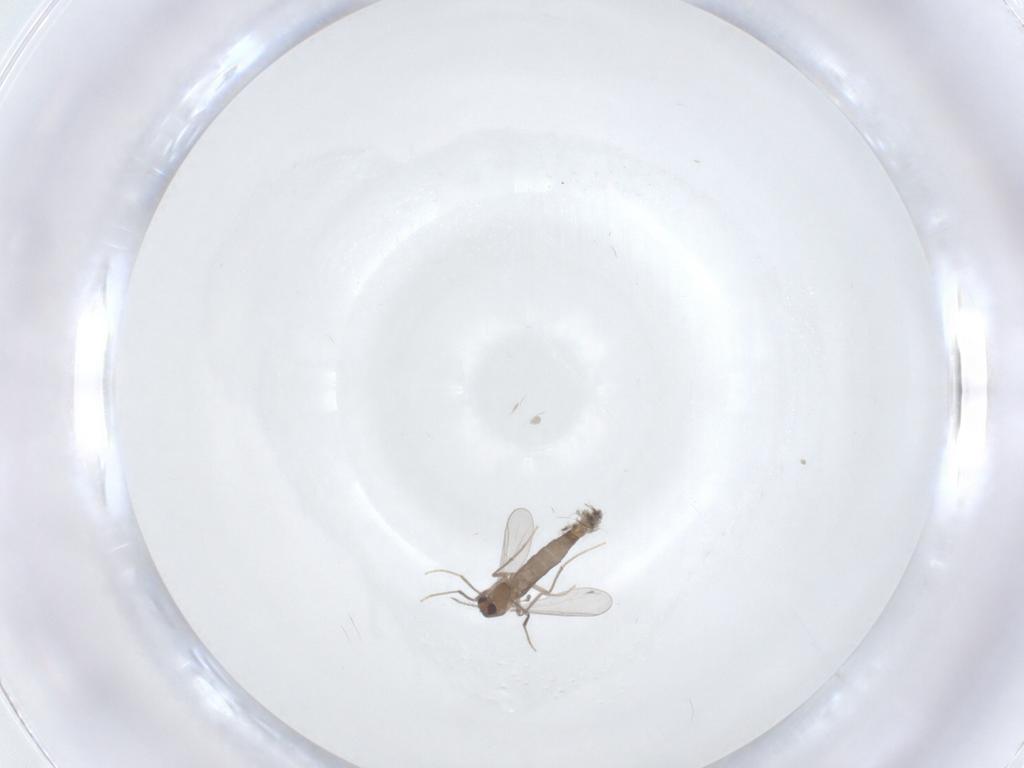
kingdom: Animalia
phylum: Arthropoda
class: Insecta
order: Diptera
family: Chironomidae
